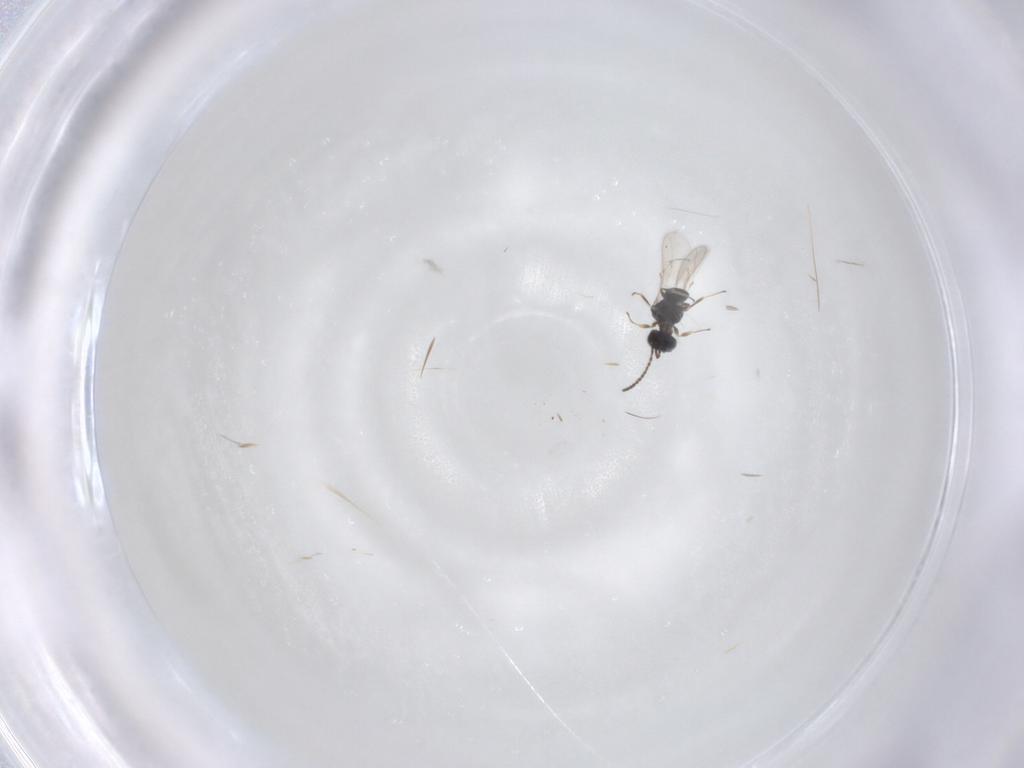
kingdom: Animalia
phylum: Arthropoda
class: Insecta
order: Hymenoptera
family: Scelionidae
